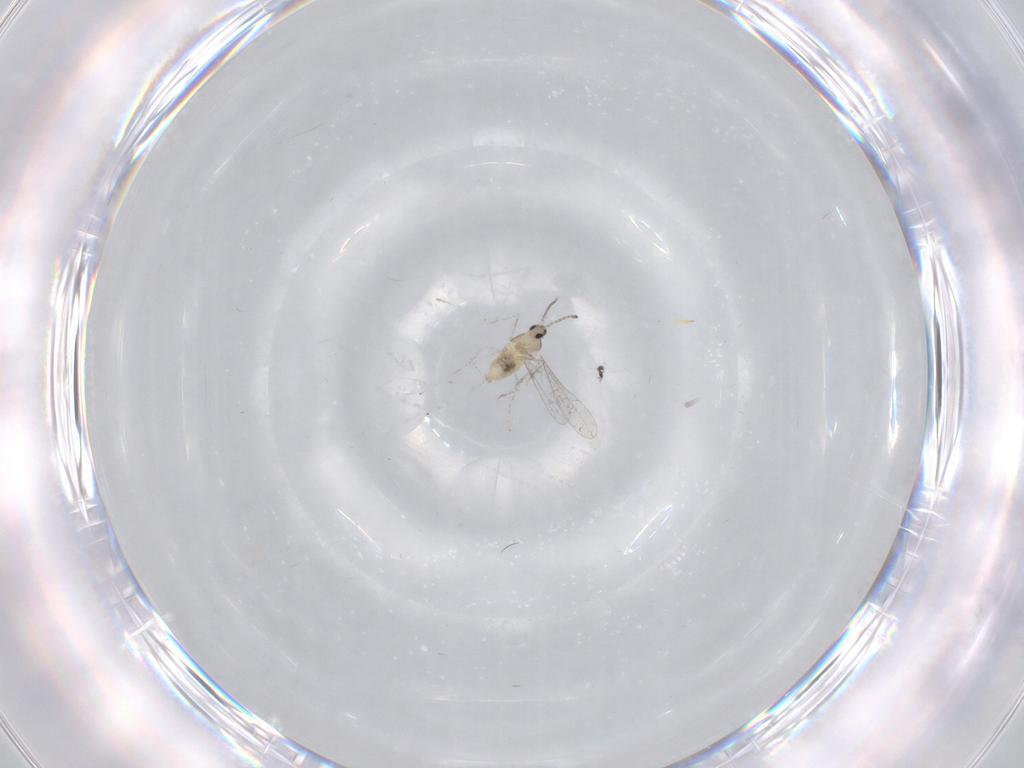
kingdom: Animalia
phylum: Arthropoda
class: Insecta
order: Diptera
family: Cecidomyiidae
